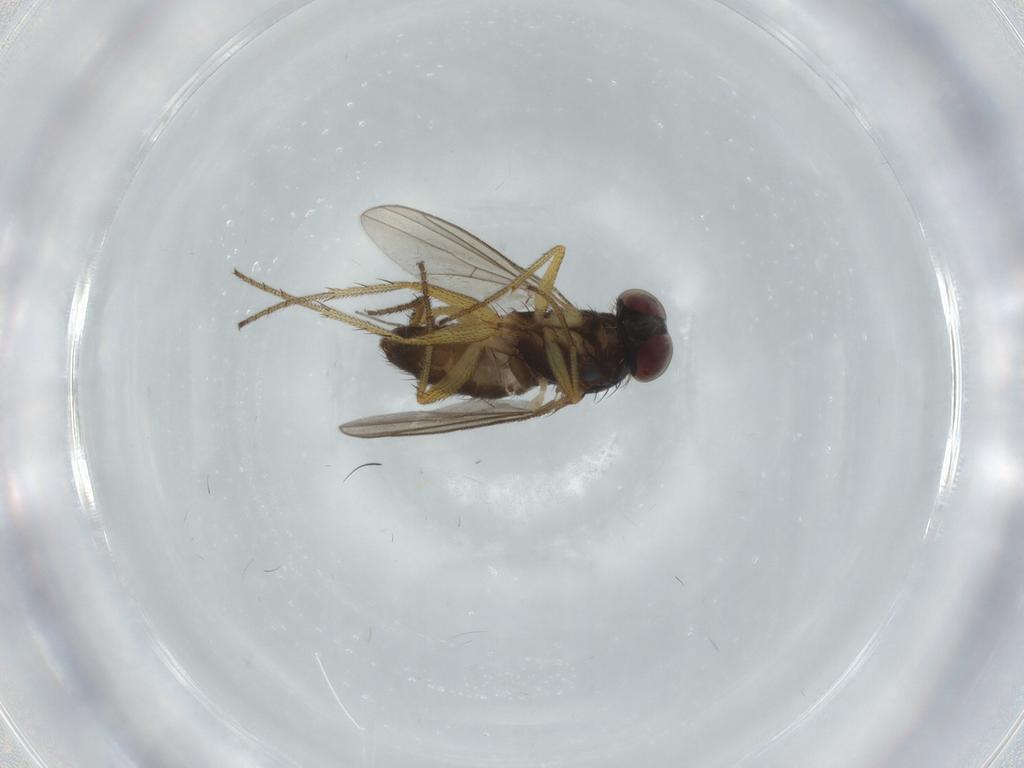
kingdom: Animalia
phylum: Arthropoda
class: Insecta
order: Diptera
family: Dolichopodidae
